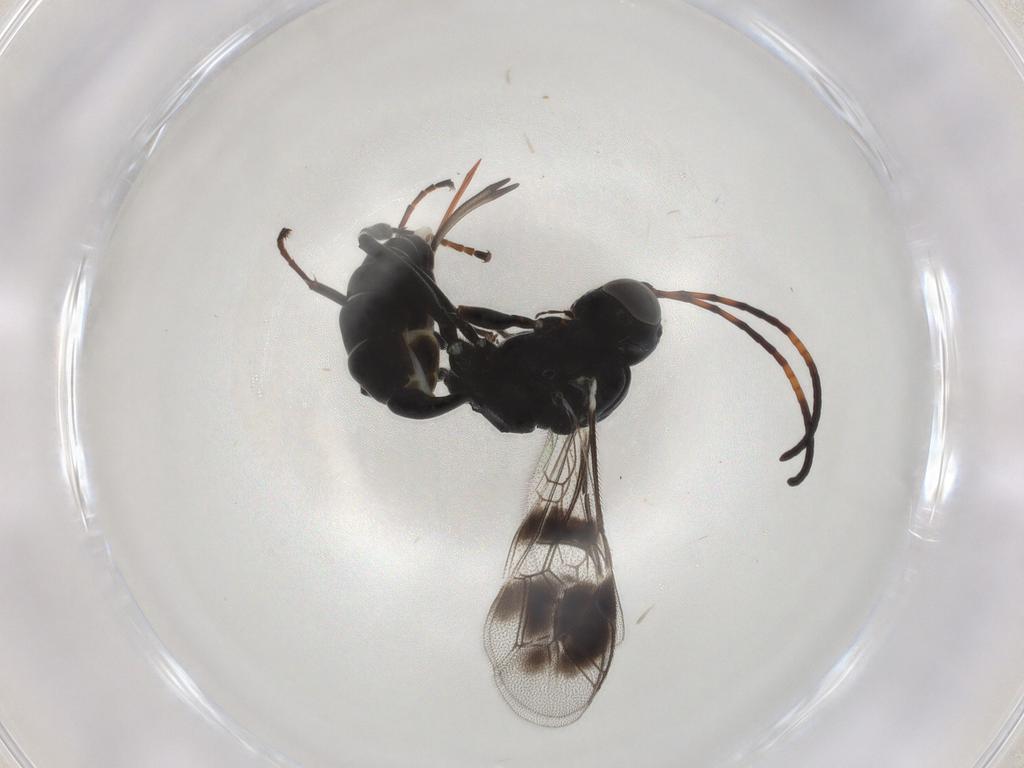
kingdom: Animalia
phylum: Arthropoda
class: Insecta
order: Hymenoptera
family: Ichneumonidae
